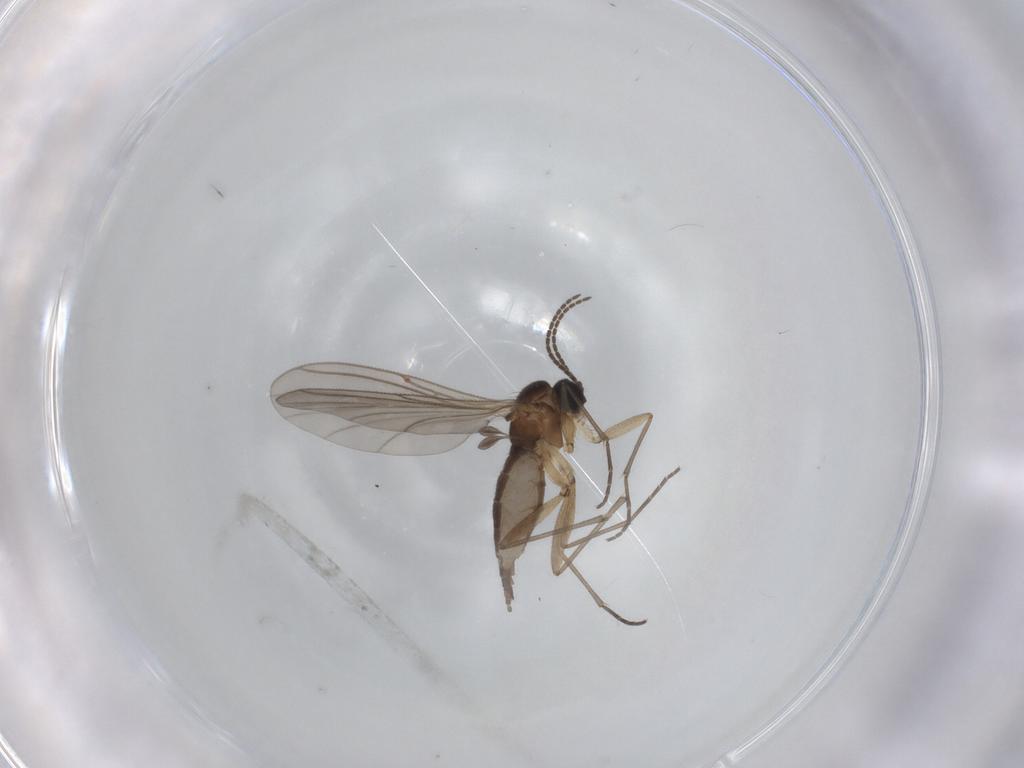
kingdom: Animalia
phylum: Arthropoda
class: Insecta
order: Diptera
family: Sciaridae
